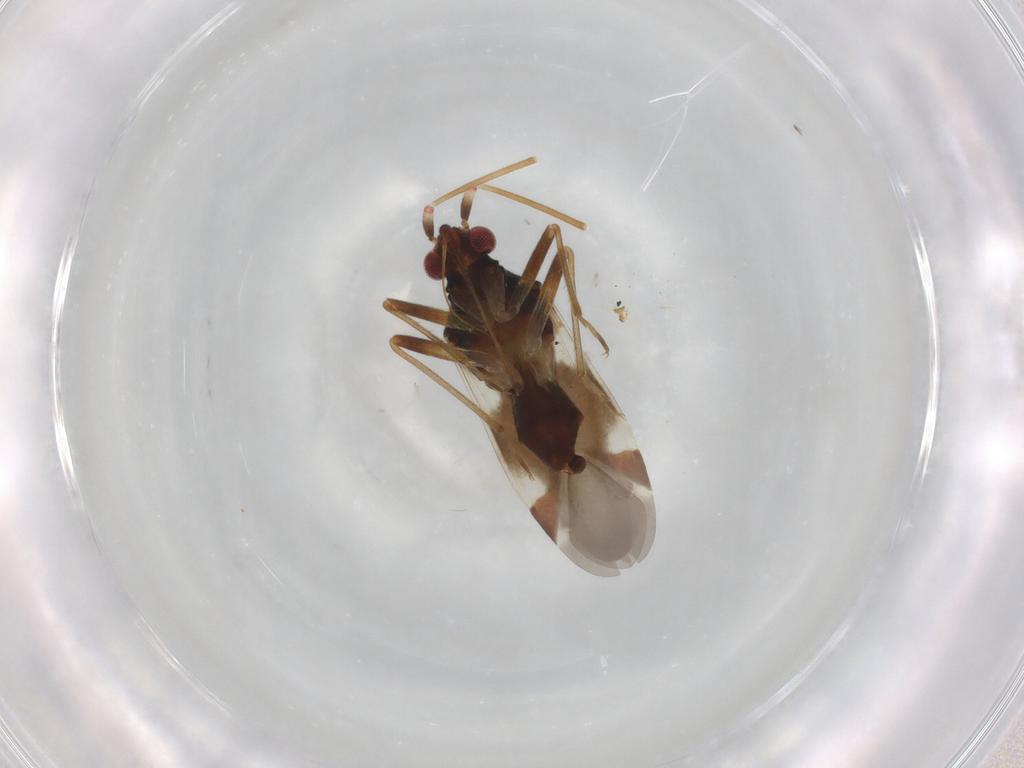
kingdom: Animalia
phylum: Arthropoda
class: Insecta
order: Hemiptera
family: Miridae
